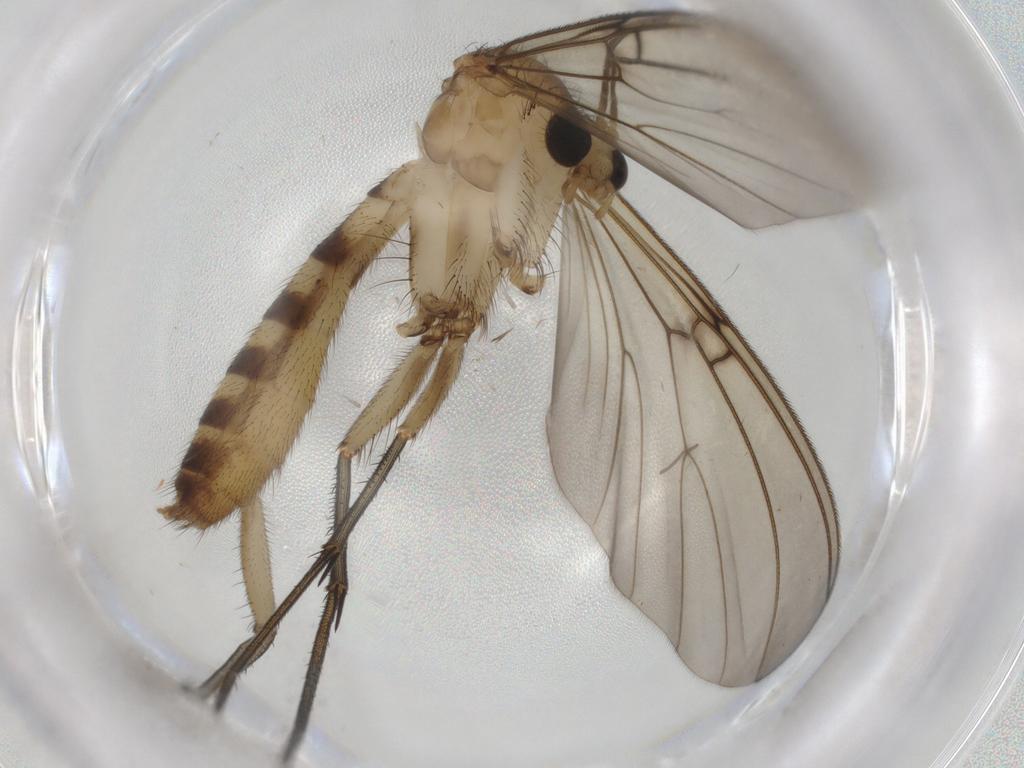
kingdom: Animalia
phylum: Arthropoda
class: Insecta
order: Diptera
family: Mycetophilidae
